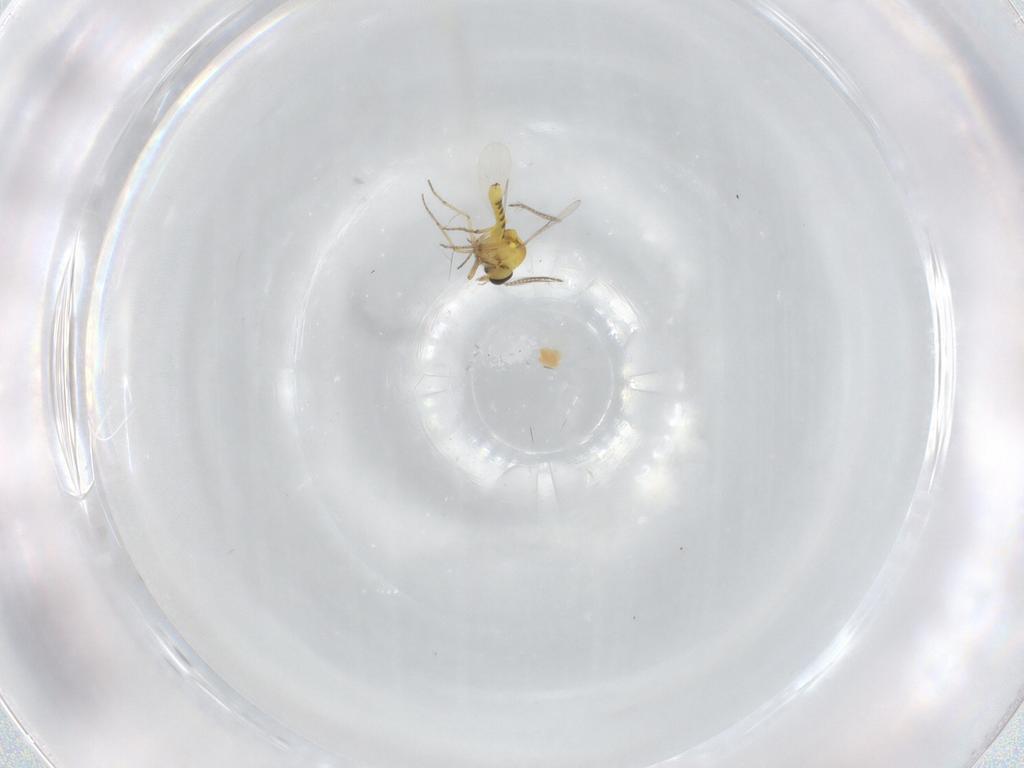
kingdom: Animalia
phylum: Arthropoda
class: Insecta
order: Diptera
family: Ceratopogonidae
